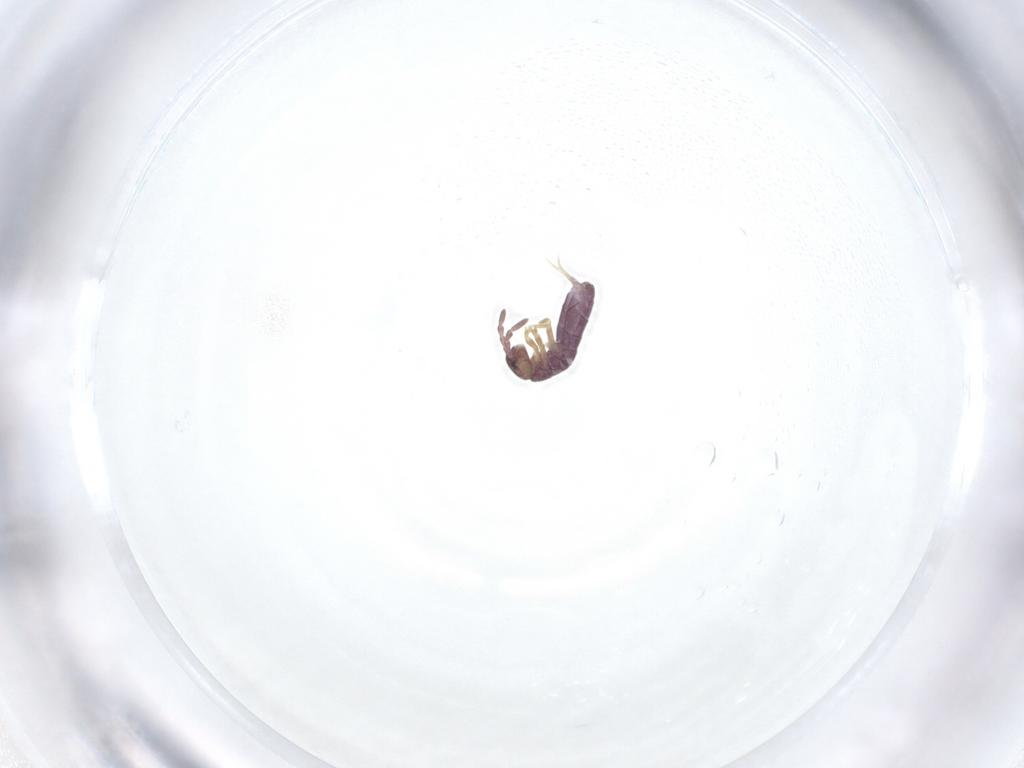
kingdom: Animalia
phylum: Arthropoda
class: Collembola
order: Entomobryomorpha
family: Isotomidae
